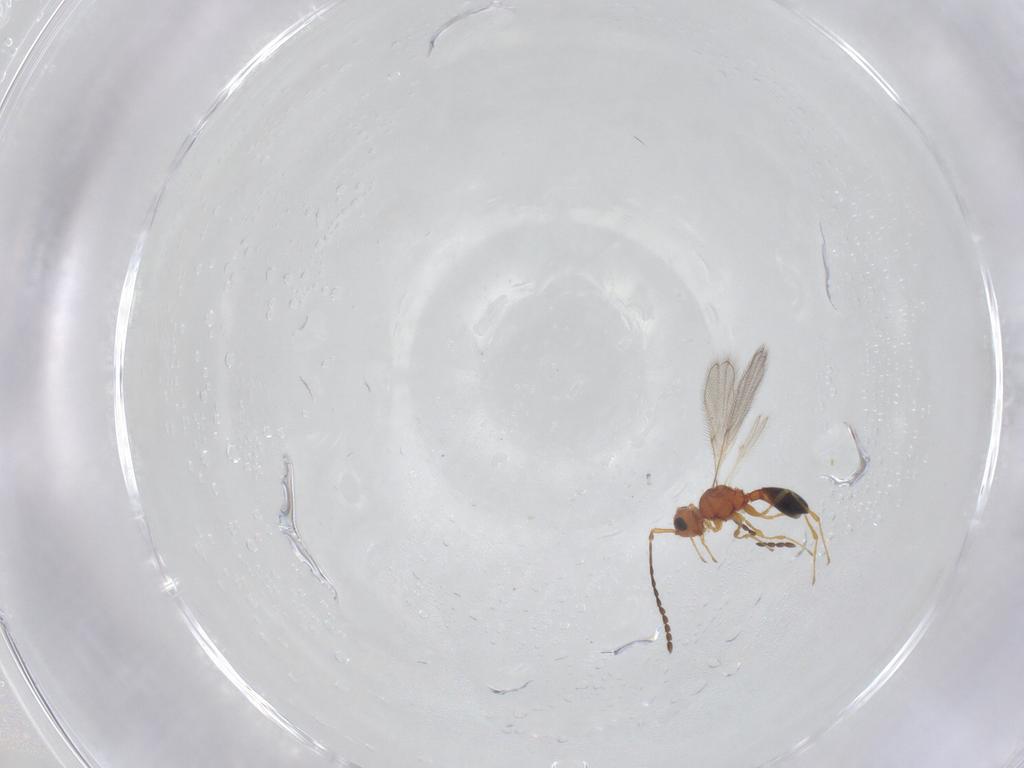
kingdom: Animalia
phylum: Arthropoda
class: Insecta
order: Hymenoptera
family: Diapriidae
